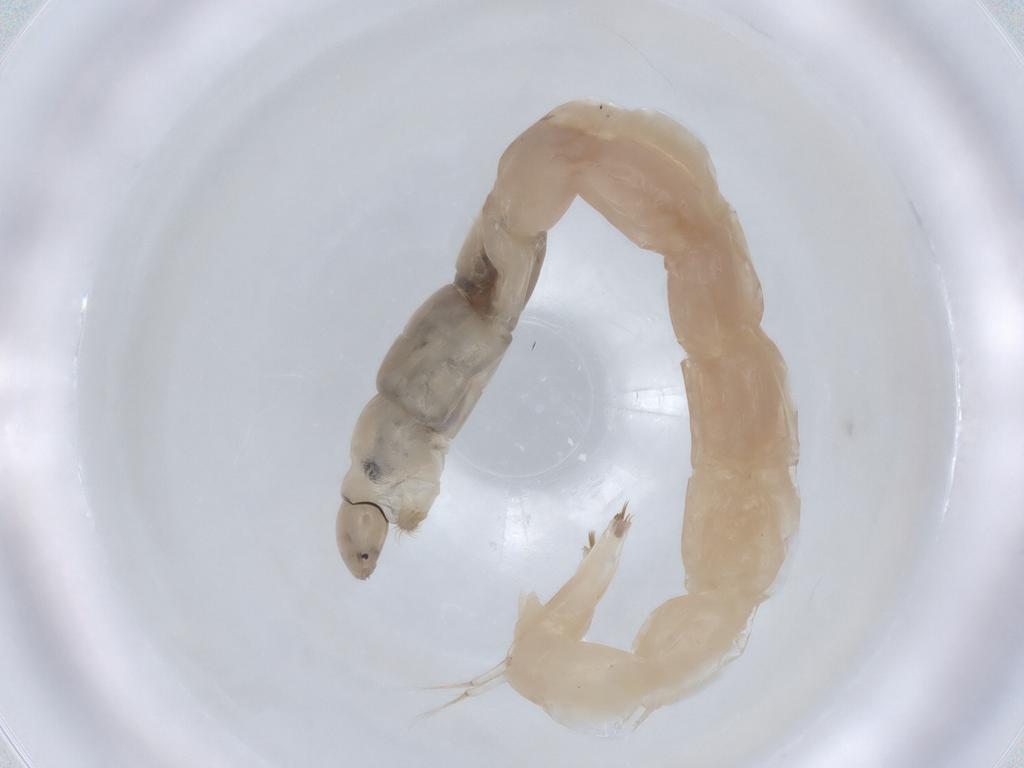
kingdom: Animalia
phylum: Arthropoda
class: Insecta
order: Diptera
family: Chironomidae
